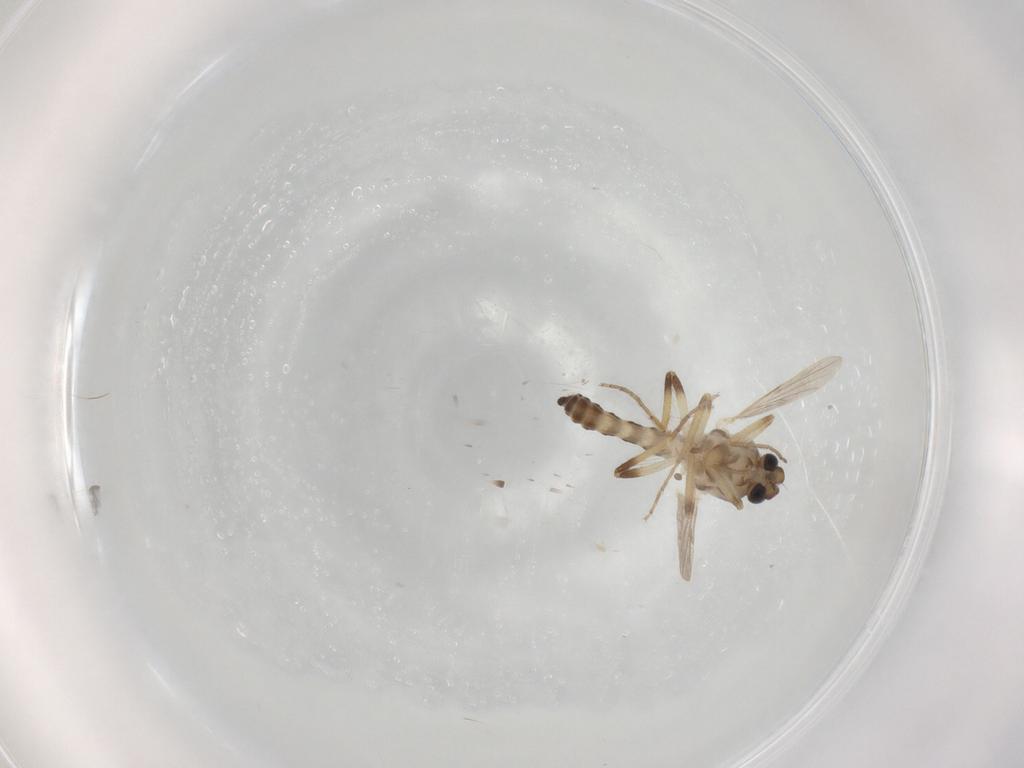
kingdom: Animalia
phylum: Arthropoda
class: Insecta
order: Diptera
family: Ceratopogonidae
